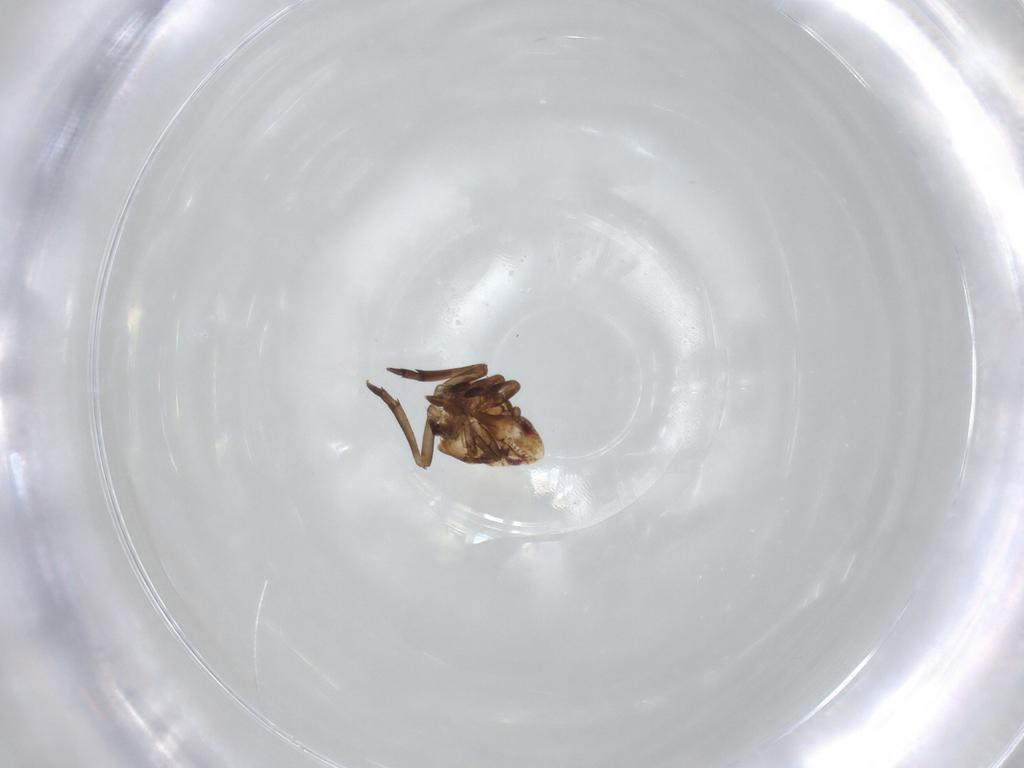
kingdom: Animalia
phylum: Arthropoda
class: Insecta
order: Diptera
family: Sciaridae
